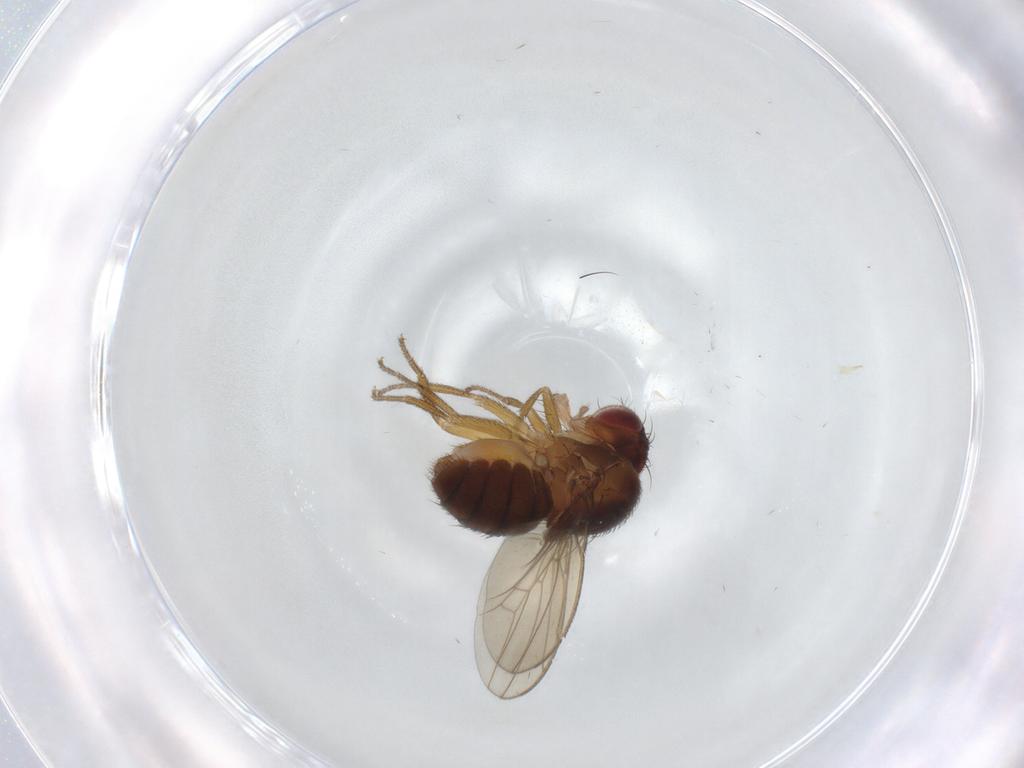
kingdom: Animalia
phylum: Arthropoda
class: Insecta
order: Diptera
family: Drosophilidae
